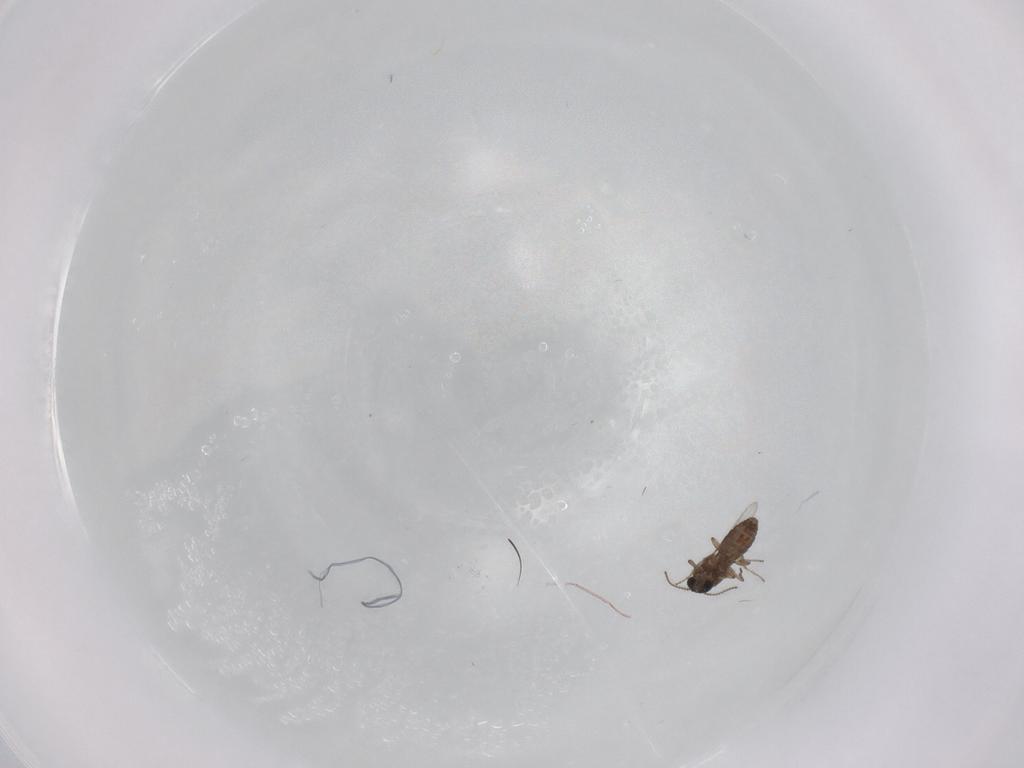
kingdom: Animalia
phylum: Arthropoda
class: Insecta
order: Diptera
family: Ceratopogonidae
